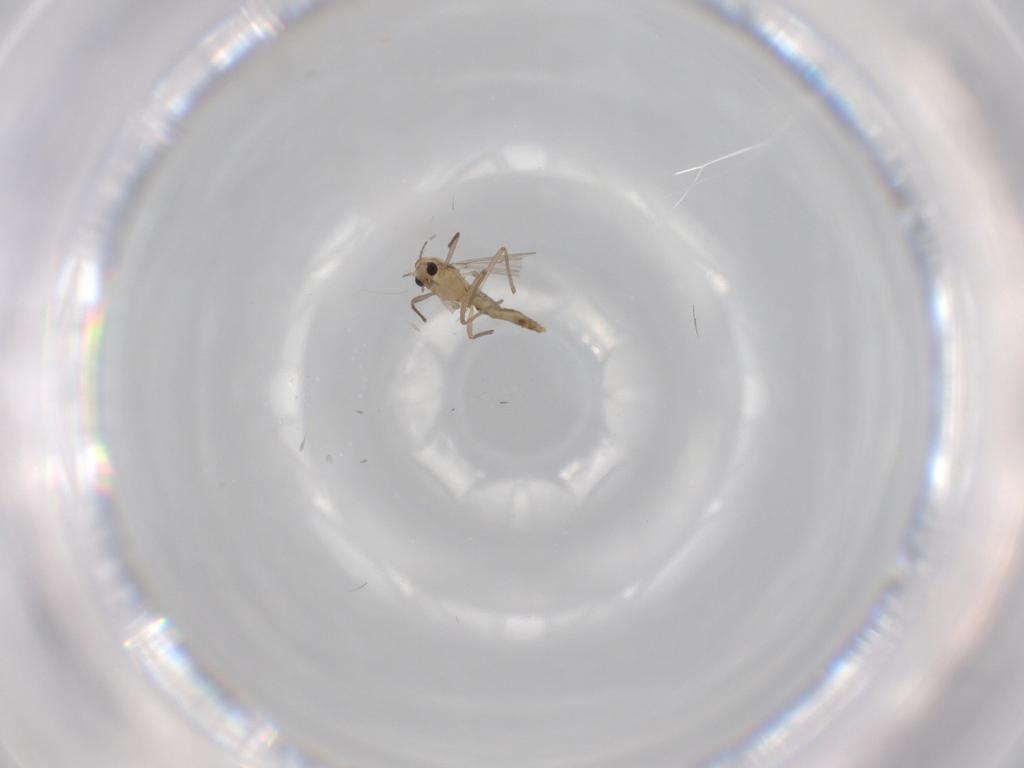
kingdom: Animalia
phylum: Arthropoda
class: Insecta
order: Diptera
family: Chironomidae
